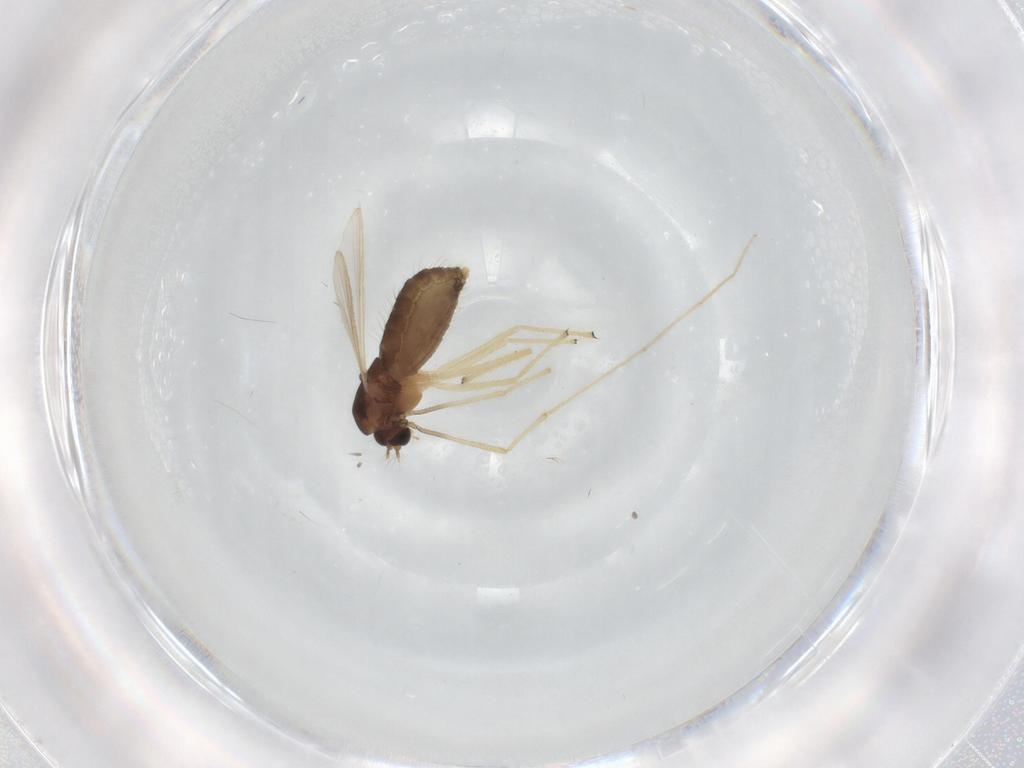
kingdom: Animalia
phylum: Arthropoda
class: Insecta
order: Diptera
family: Chironomidae
